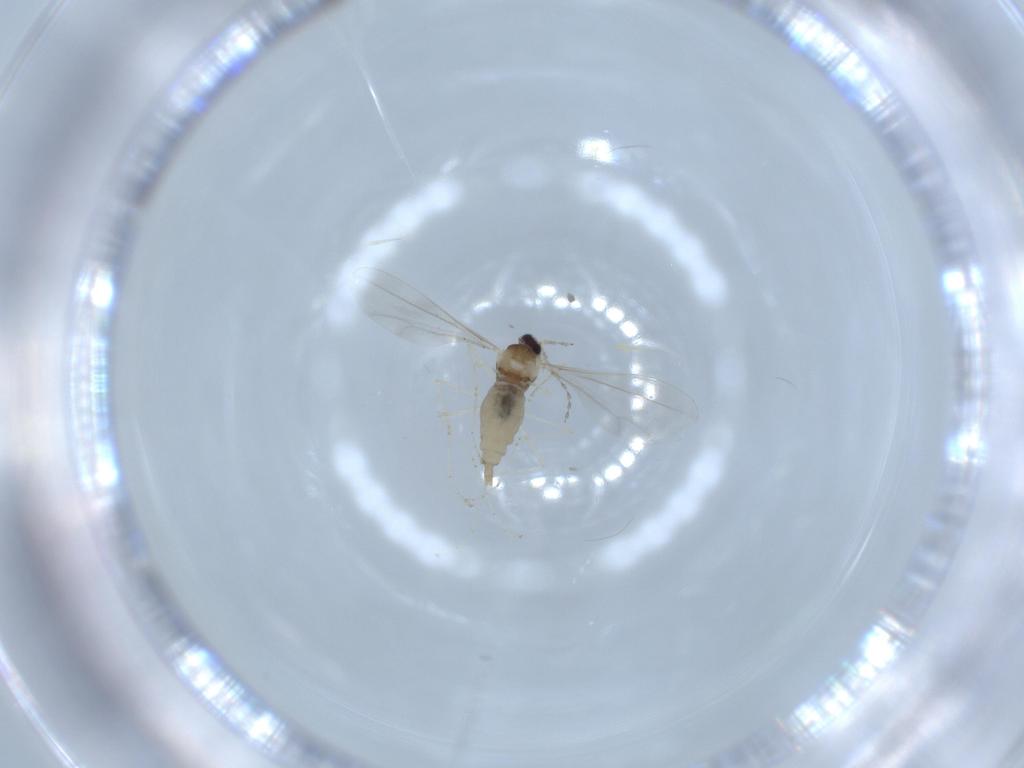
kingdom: Animalia
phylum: Arthropoda
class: Insecta
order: Diptera
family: Cecidomyiidae
